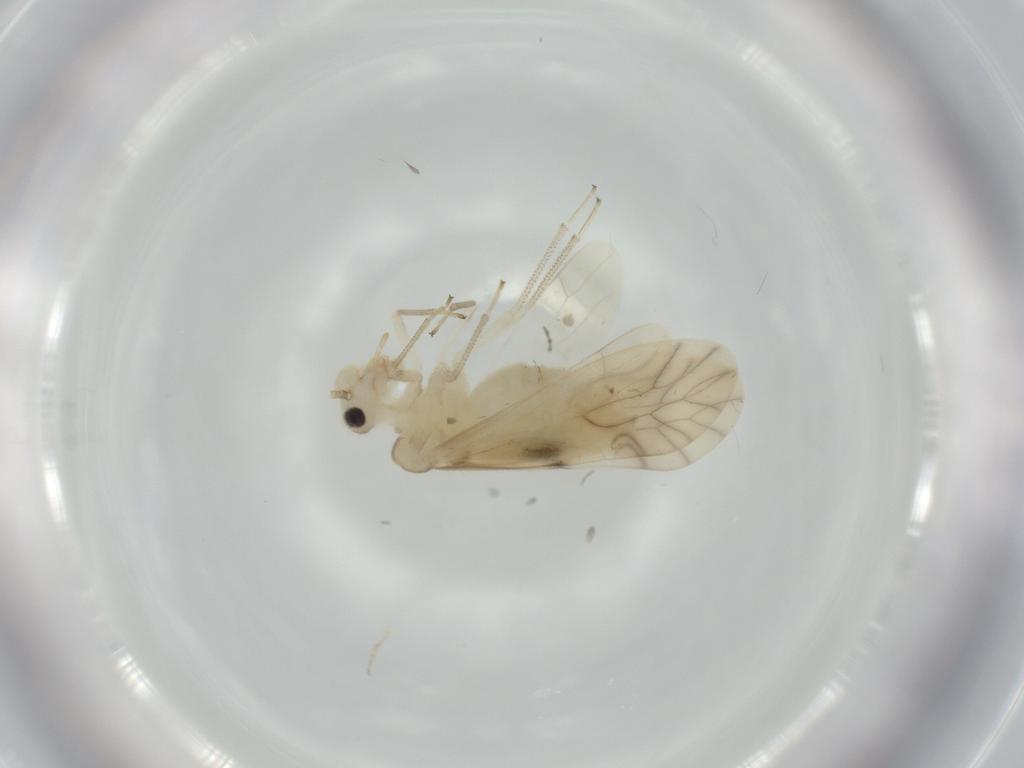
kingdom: Animalia
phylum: Arthropoda
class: Insecta
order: Psocodea
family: Caeciliusidae
